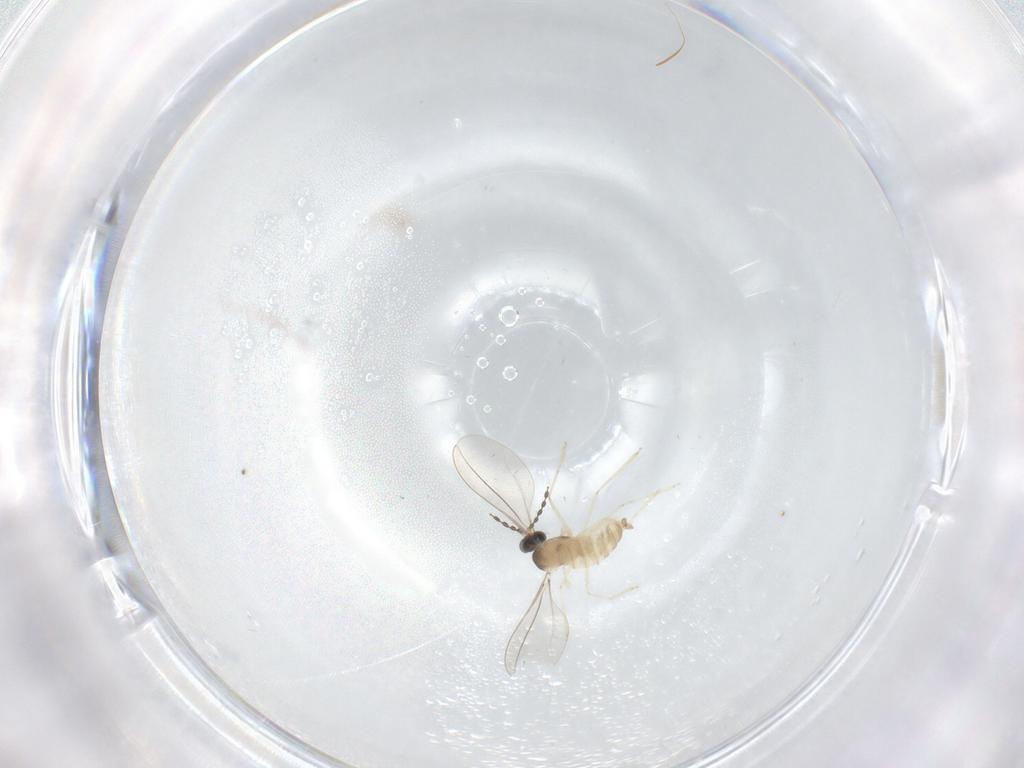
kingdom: Animalia
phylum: Arthropoda
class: Insecta
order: Diptera
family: Cecidomyiidae
